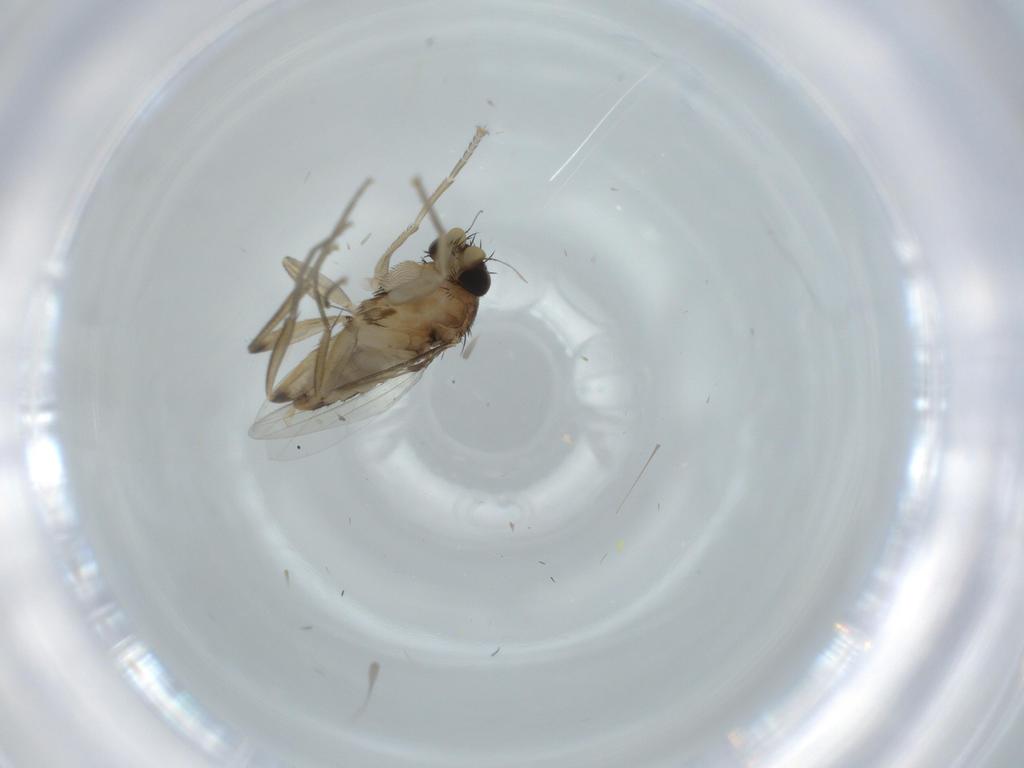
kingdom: Animalia
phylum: Arthropoda
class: Insecta
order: Diptera
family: Phoridae
